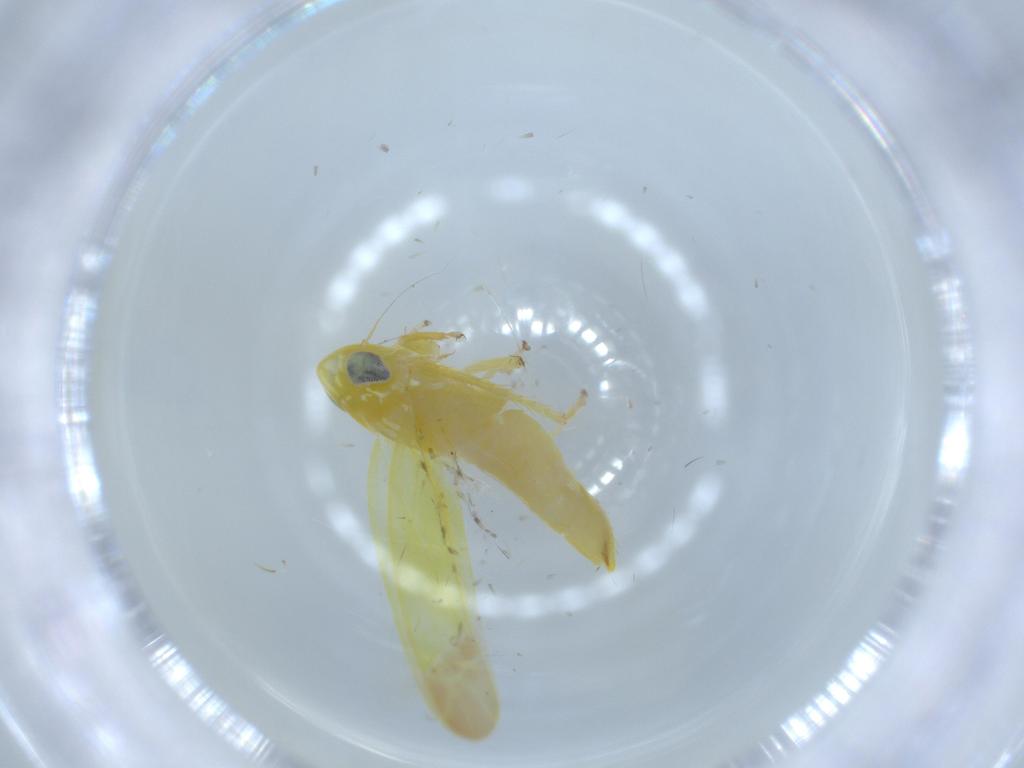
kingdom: Animalia
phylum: Arthropoda
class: Insecta
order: Hemiptera
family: Cicadellidae
